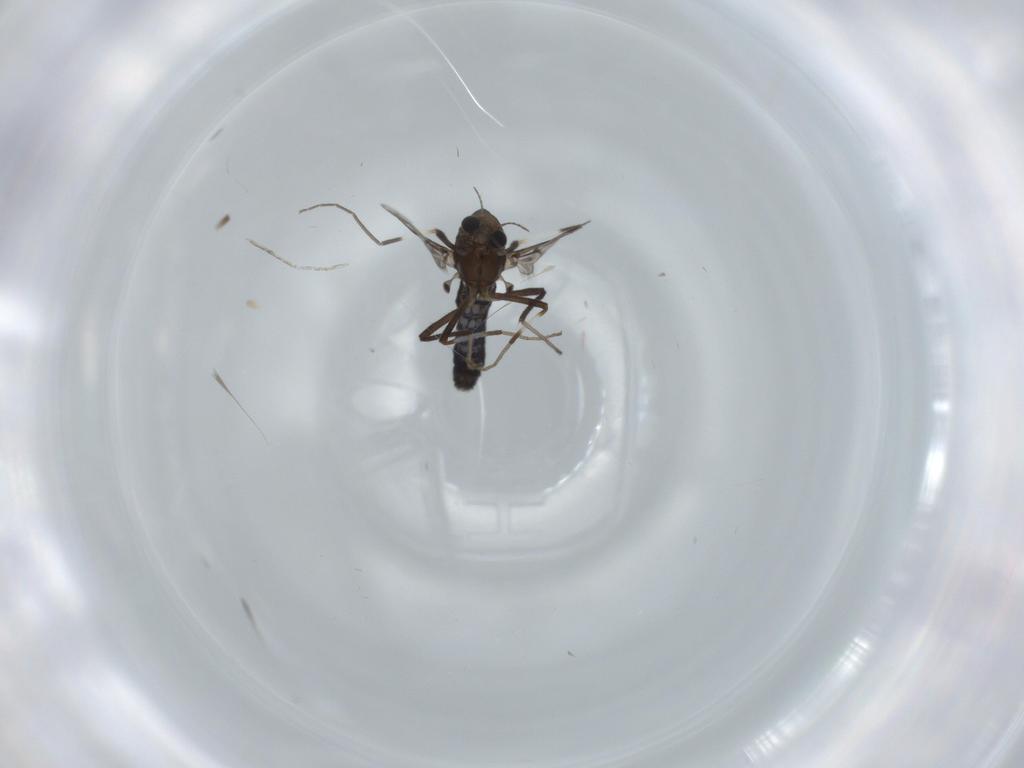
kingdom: Animalia
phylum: Arthropoda
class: Insecta
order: Diptera
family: Chironomidae
